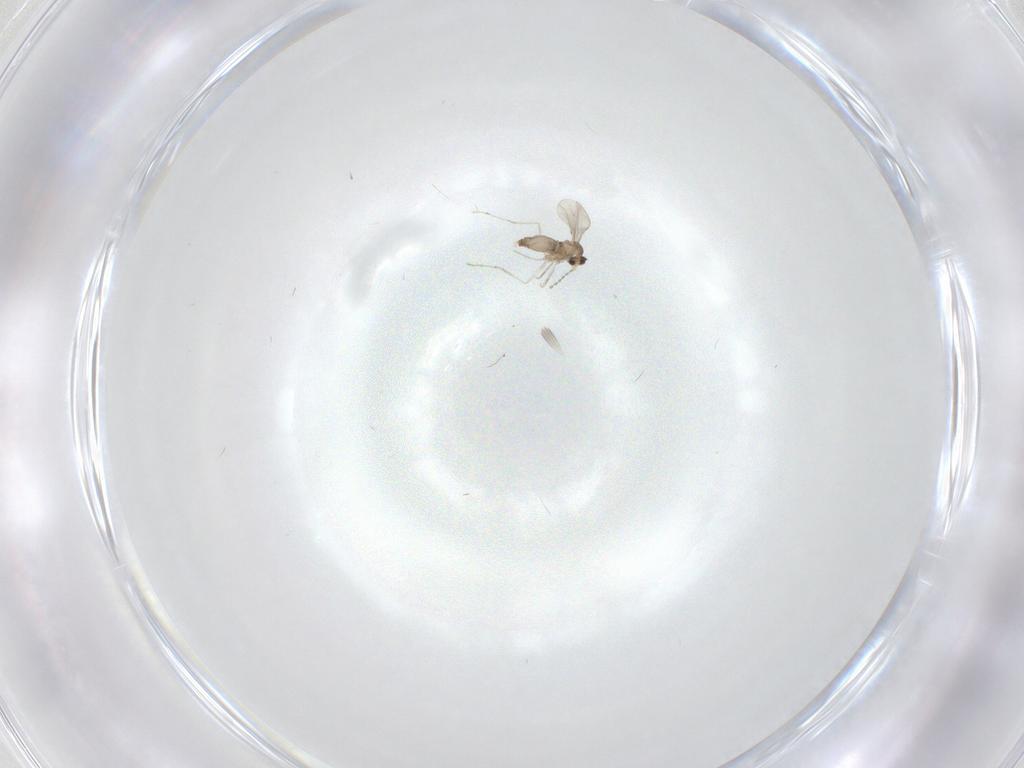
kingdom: Animalia
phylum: Arthropoda
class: Insecta
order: Diptera
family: Cecidomyiidae
